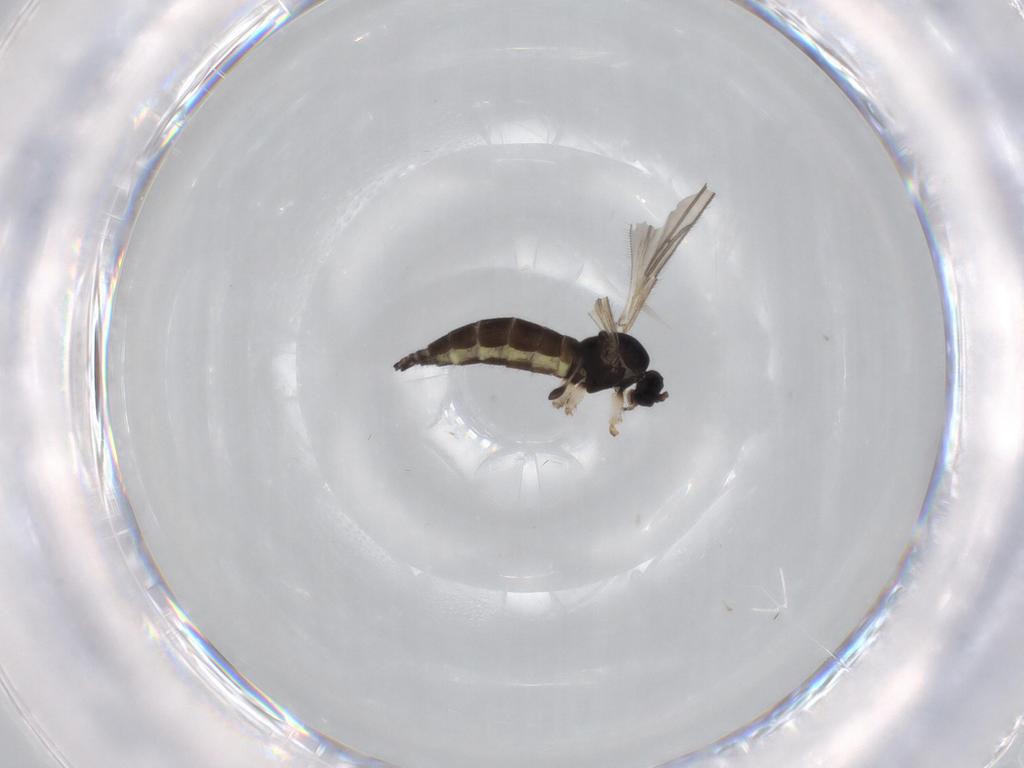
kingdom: Animalia
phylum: Arthropoda
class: Insecta
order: Diptera
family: Sciaridae
